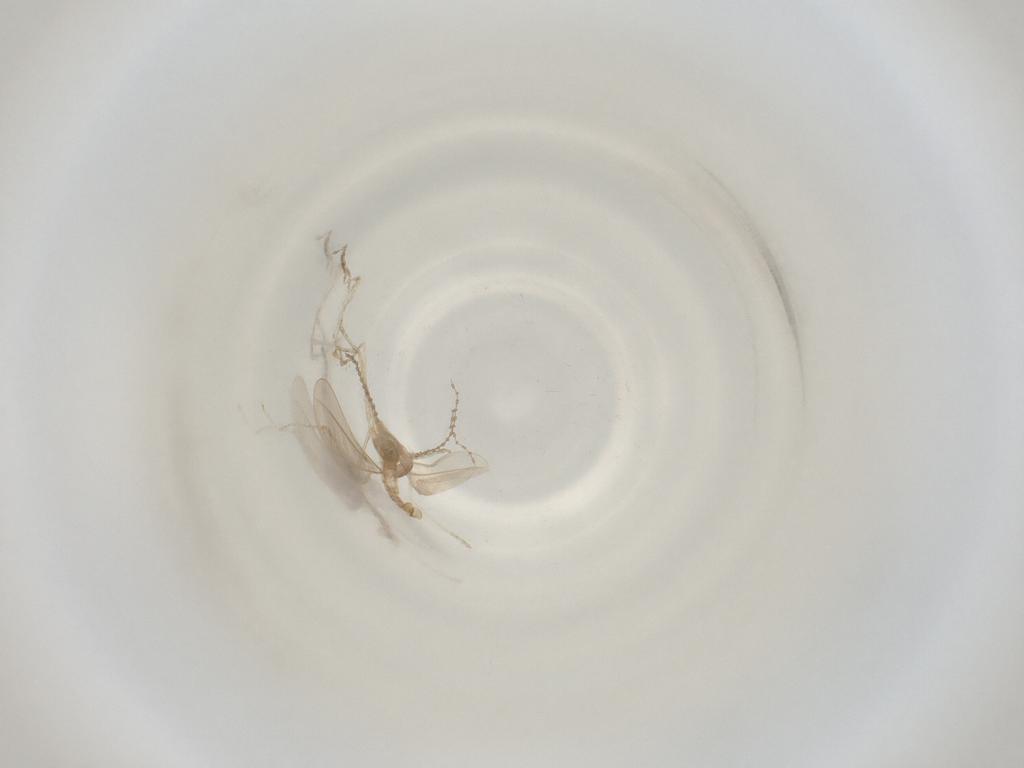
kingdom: Animalia
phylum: Arthropoda
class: Insecta
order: Diptera
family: Cecidomyiidae
